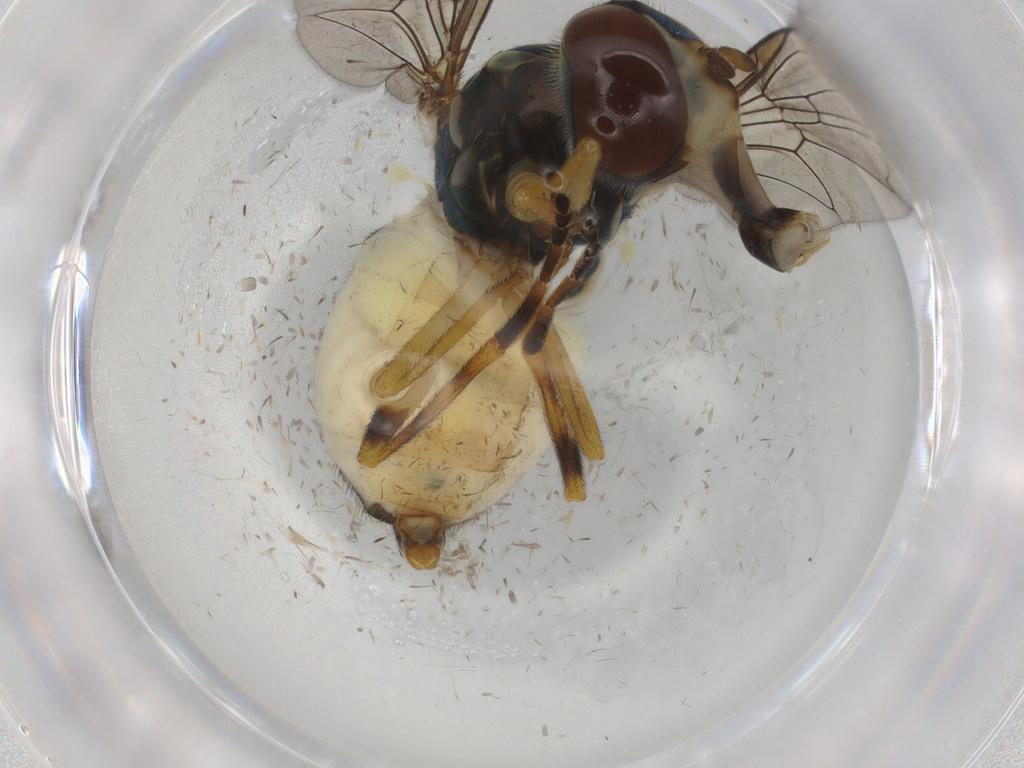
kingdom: Animalia
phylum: Arthropoda
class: Insecta
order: Diptera
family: Syrphidae
